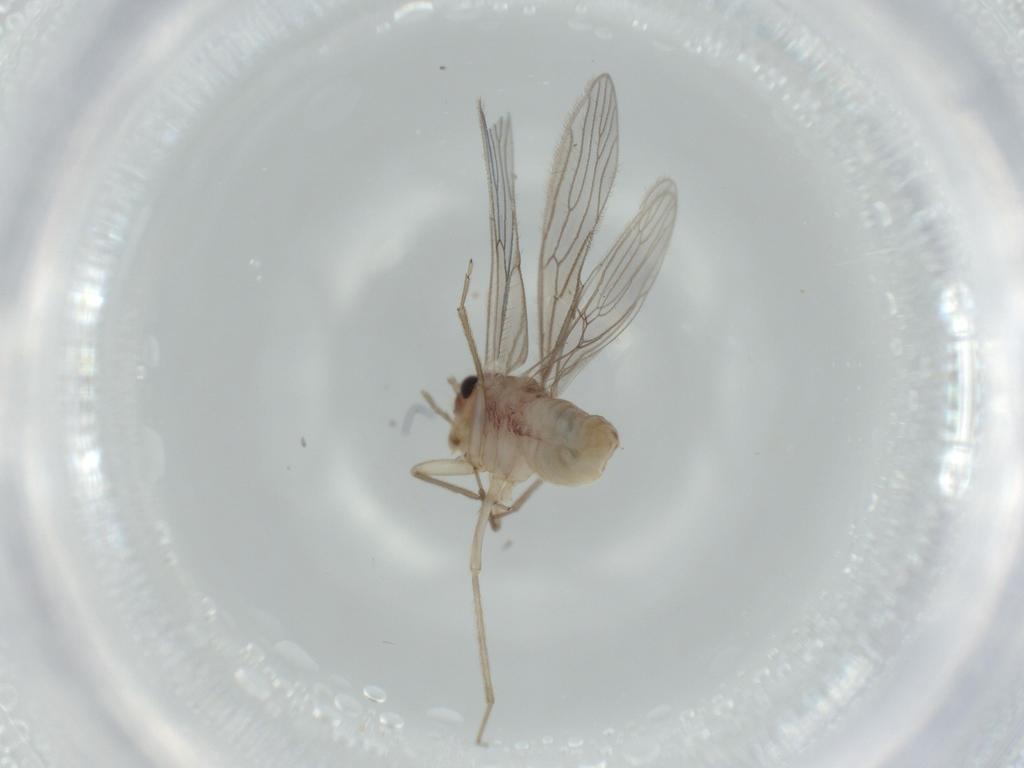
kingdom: Animalia
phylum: Arthropoda
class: Insecta
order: Psocodea
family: Cladiopsocidae
